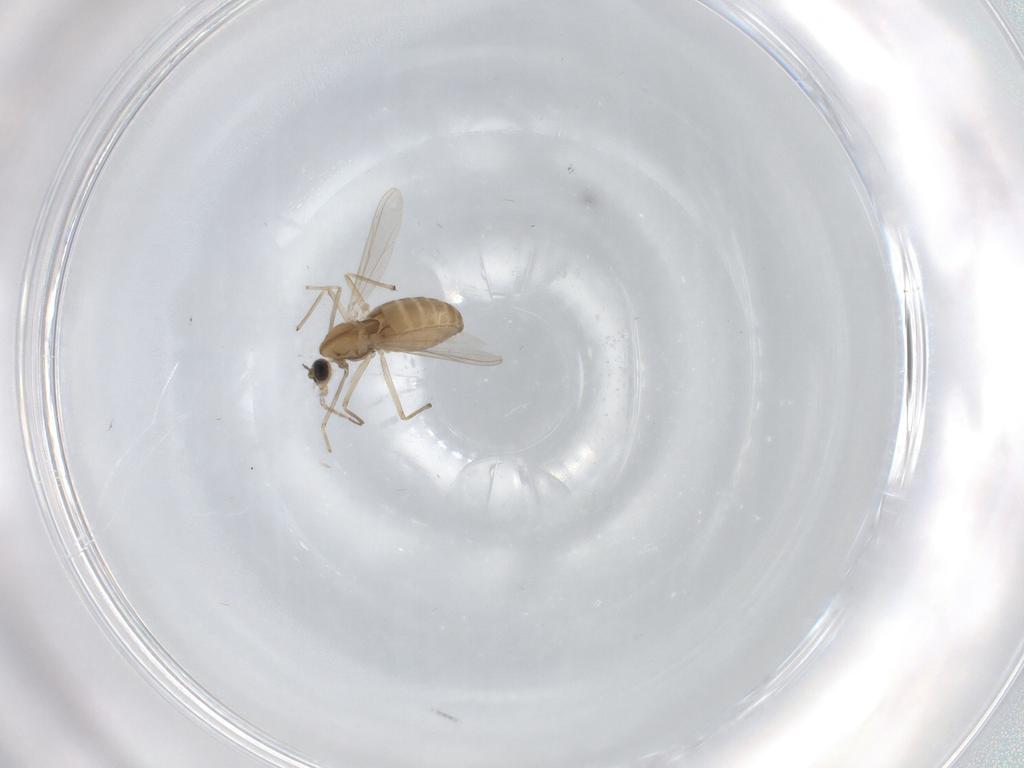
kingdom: Animalia
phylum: Arthropoda
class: Insecta
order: Diptera
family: Chironomidae
